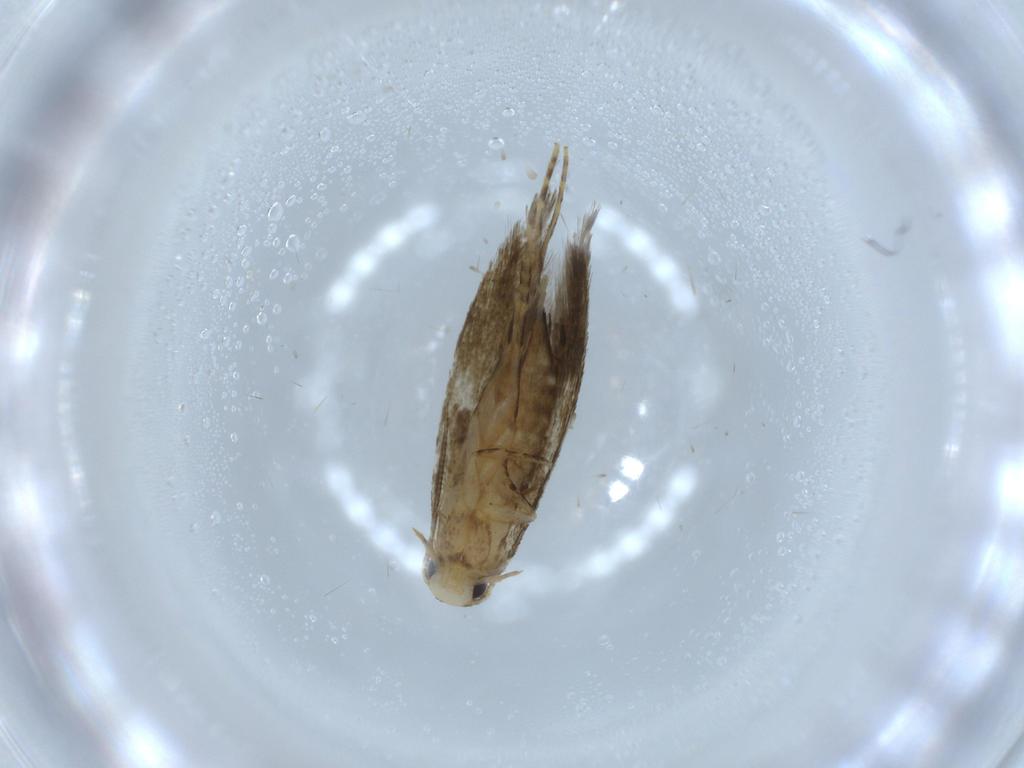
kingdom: Animalia
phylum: Arthropoda
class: Insecta
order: Lepidoptera
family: Tineidae
